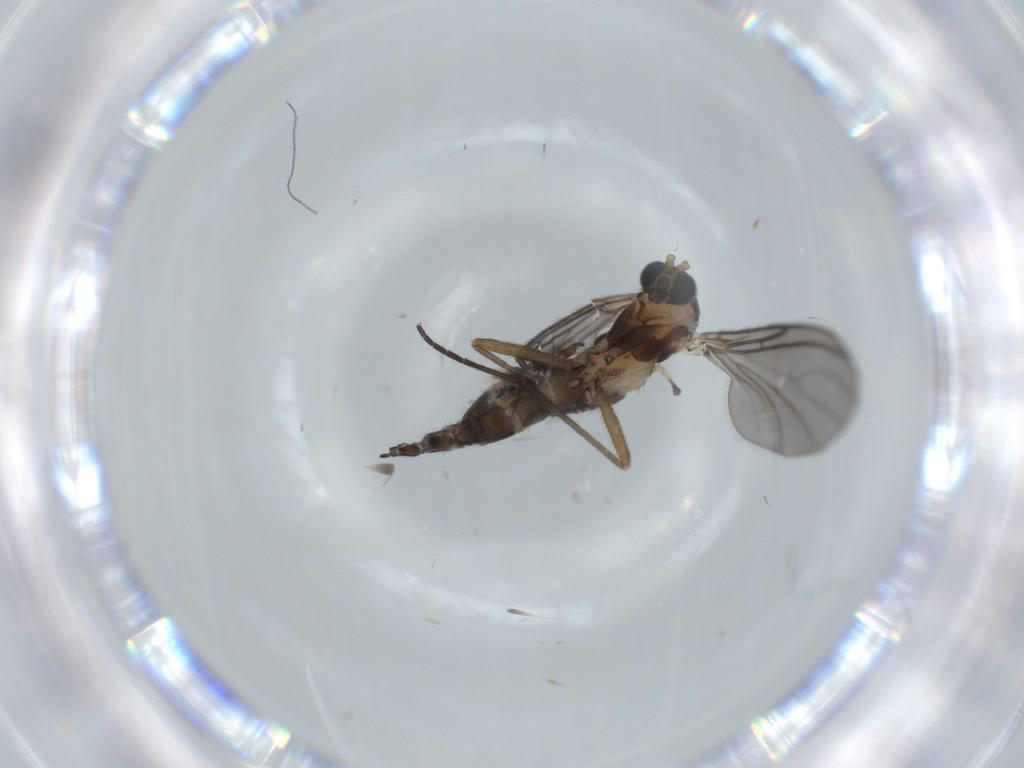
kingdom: Animalia
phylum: Arthropoda
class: Insecta
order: Diptera
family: Sciaridae
